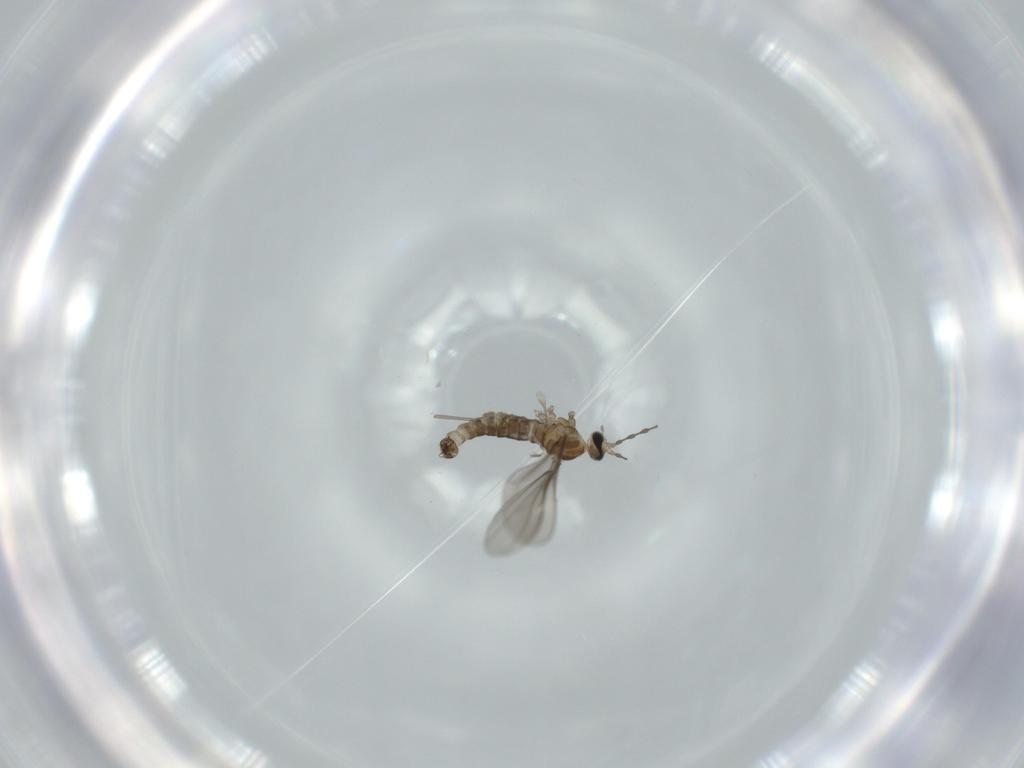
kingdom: Animalia
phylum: Arthropoda
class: Insecta
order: Diptera
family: Cecidomyiidae
